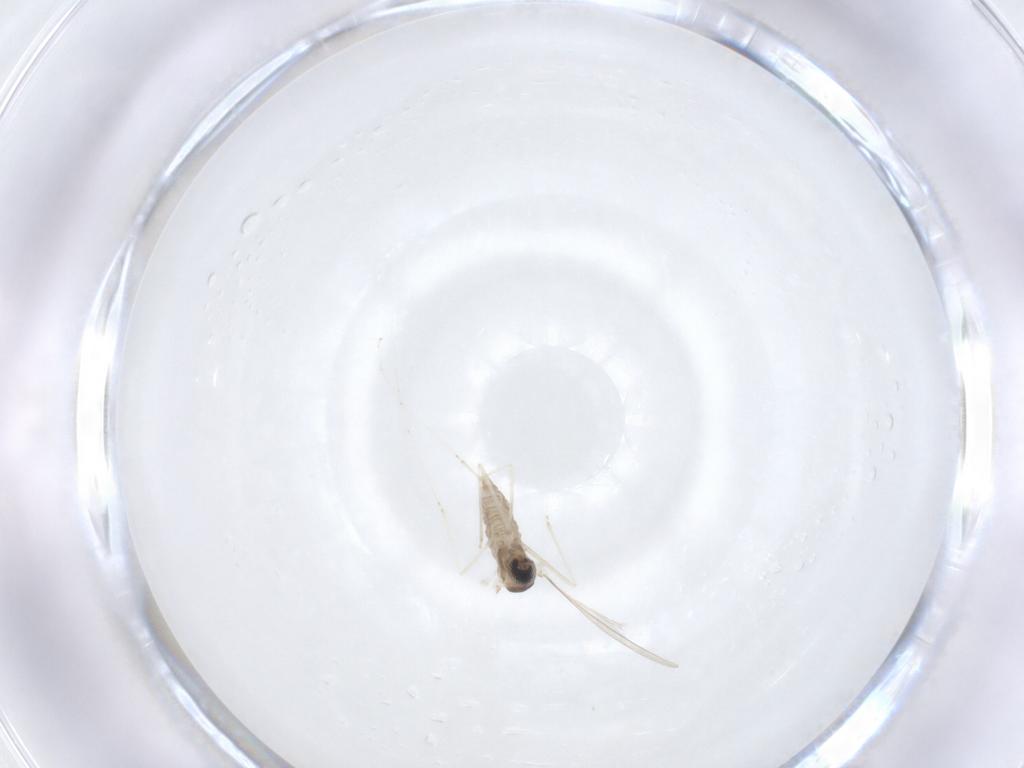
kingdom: Animalia
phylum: Arthropoda
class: Insecta
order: Diptera
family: Cecidomyiidae
